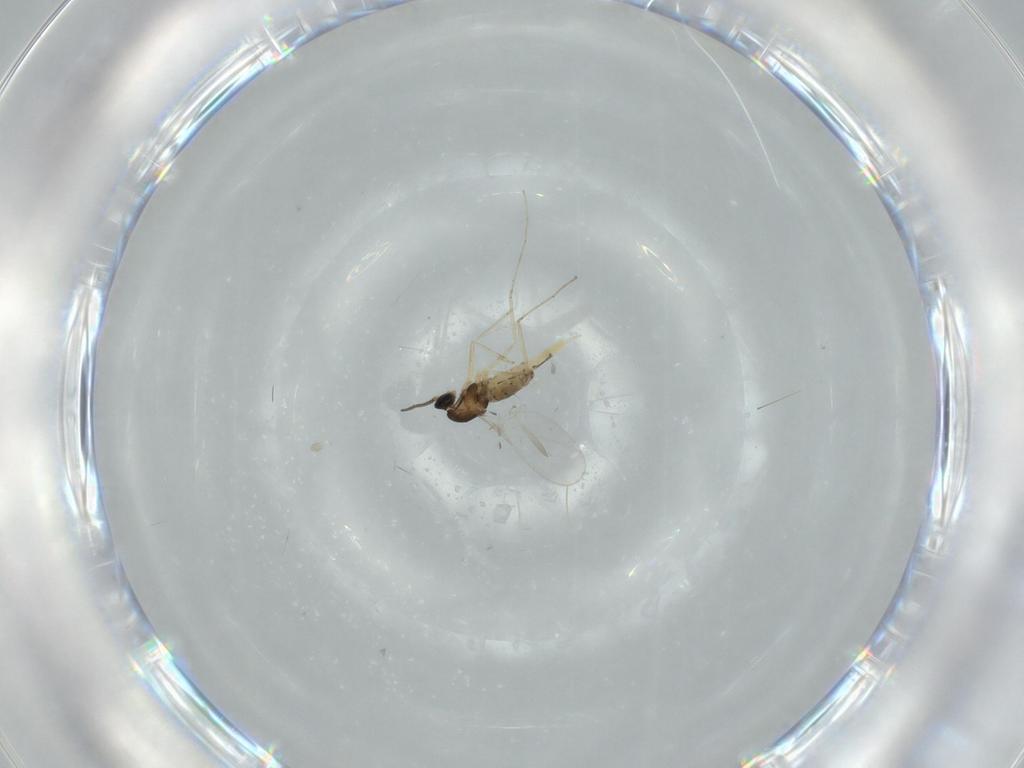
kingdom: Animalia
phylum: Arthropoda
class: Insecta
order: Diptera
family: Cecidomyiidae
